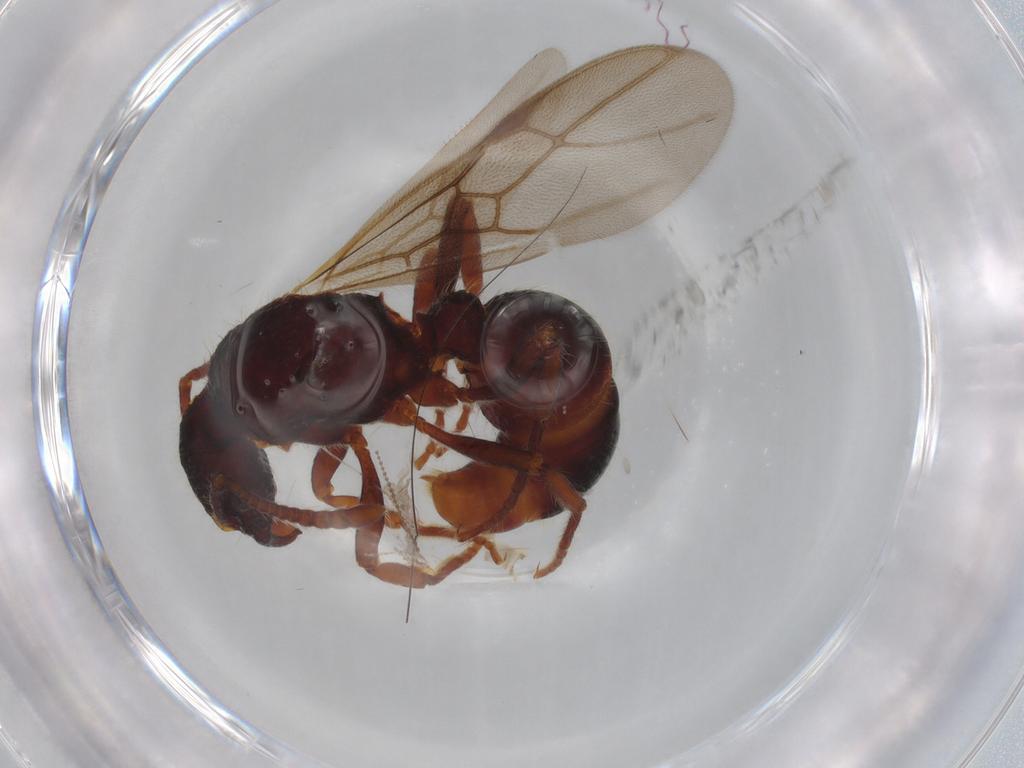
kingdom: Animalia
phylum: Arthropoda
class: Insecta
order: Hymenoptera
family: Formicidae
